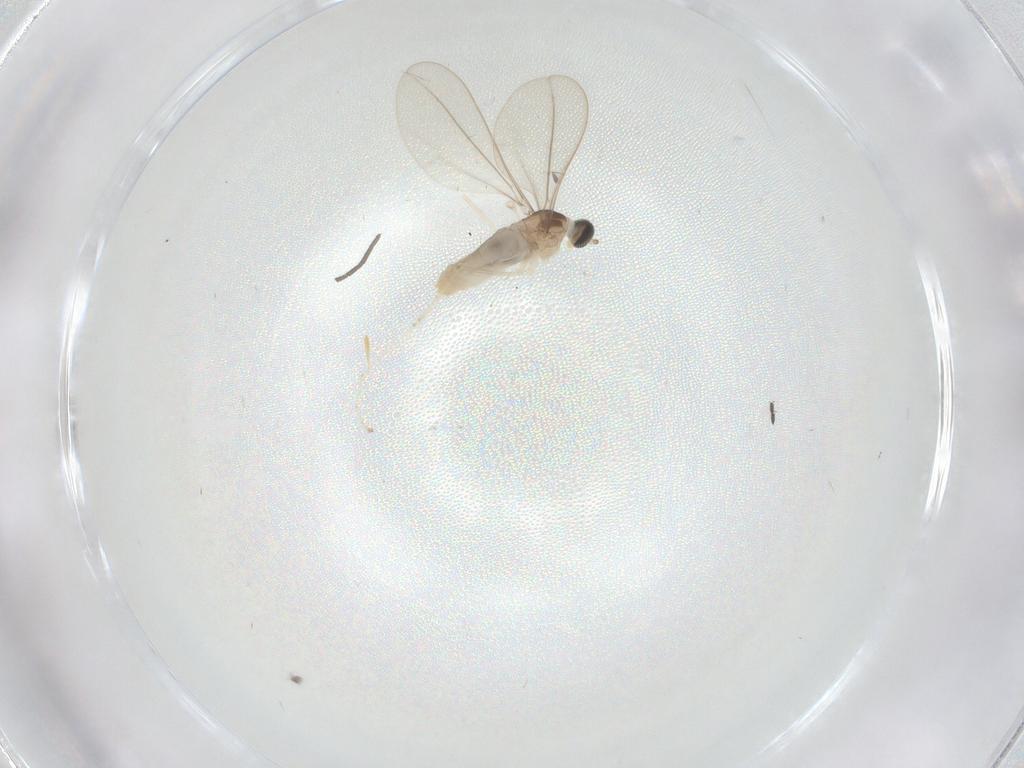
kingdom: Animalia
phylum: Arthropoda
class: Insecta
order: Diptera
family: Cecidomyiidae
